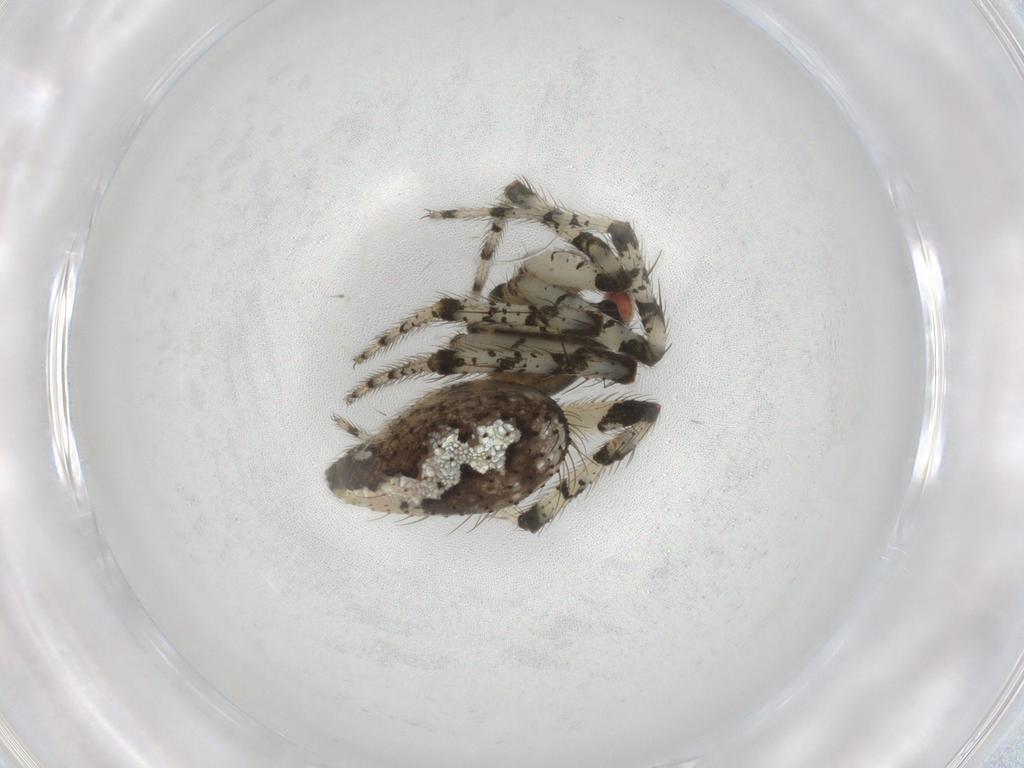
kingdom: Animalia
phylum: Arthropoda
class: Arachnida
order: Araneae
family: Theridiidae
